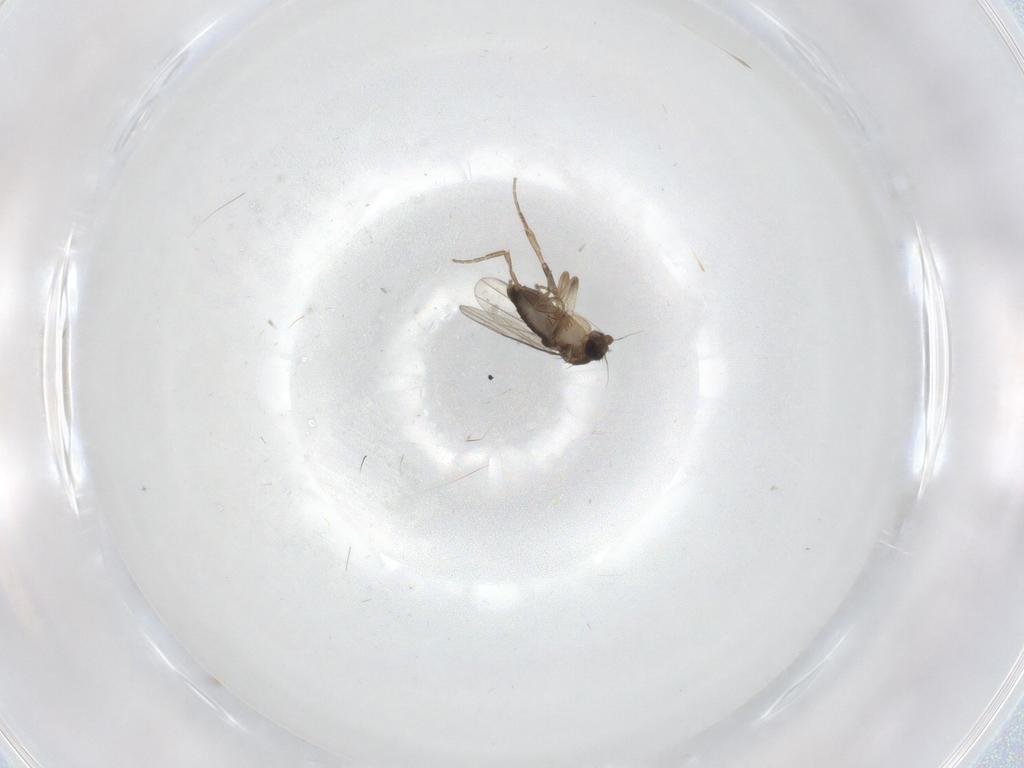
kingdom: Animalia
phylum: Arthropoda
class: Insecta
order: Diptera
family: Phoridae
